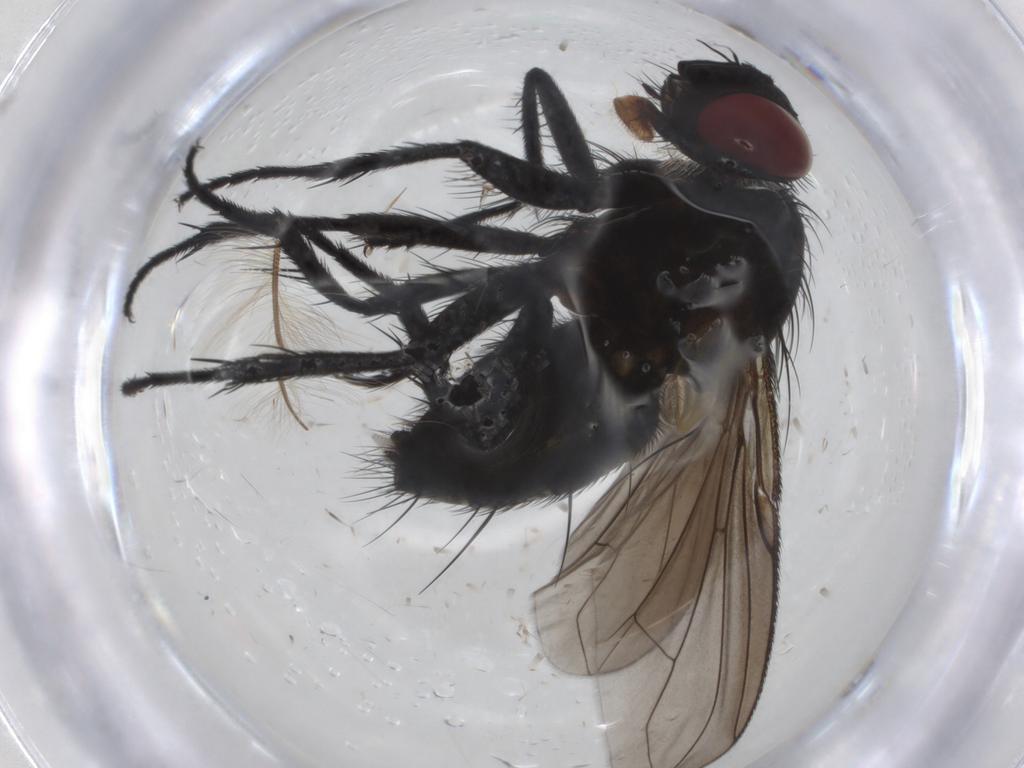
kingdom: Animalia
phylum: Arthropoda
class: Insecta
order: Diptera
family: Tachinidae
